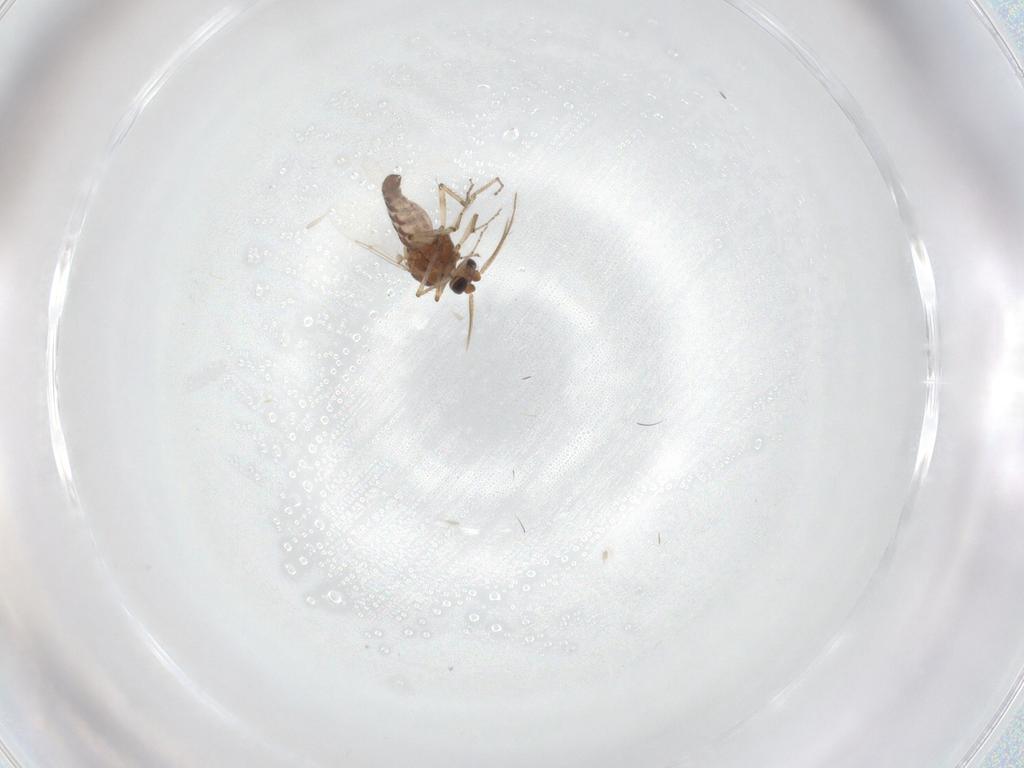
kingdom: Animalia
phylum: Arthropoda
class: Insecta
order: Diptera
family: Ceratopogonidae
